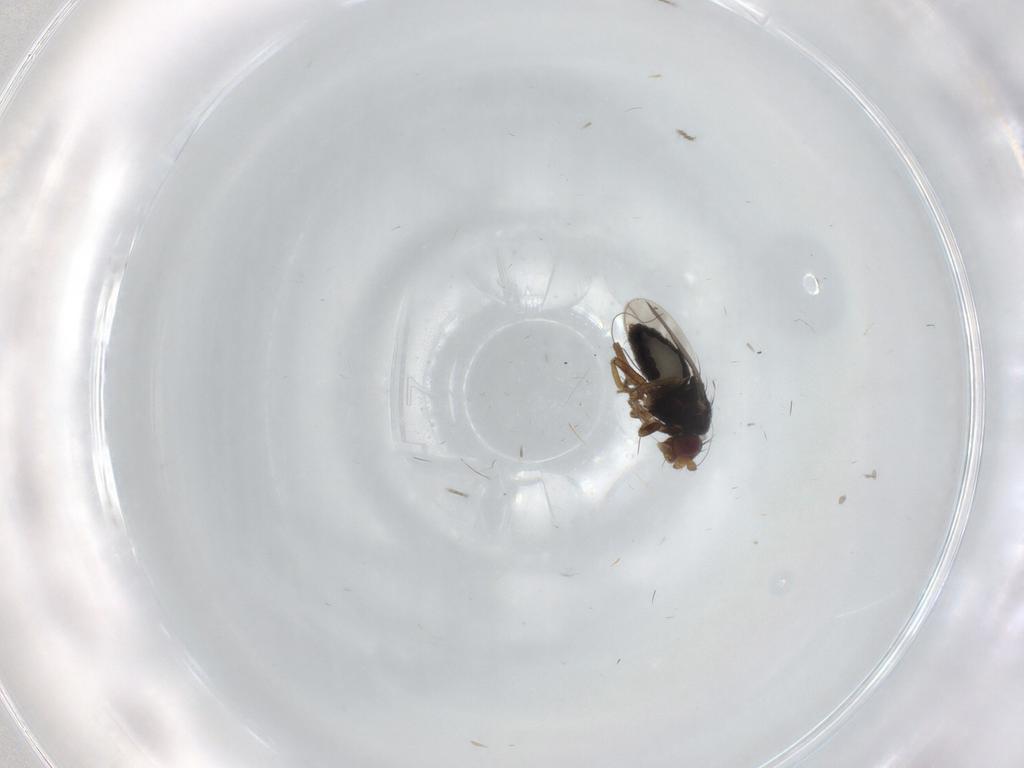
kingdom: Animalia
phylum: Arthropoda
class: Insecta
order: Diptera
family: Sphaeroceridae
